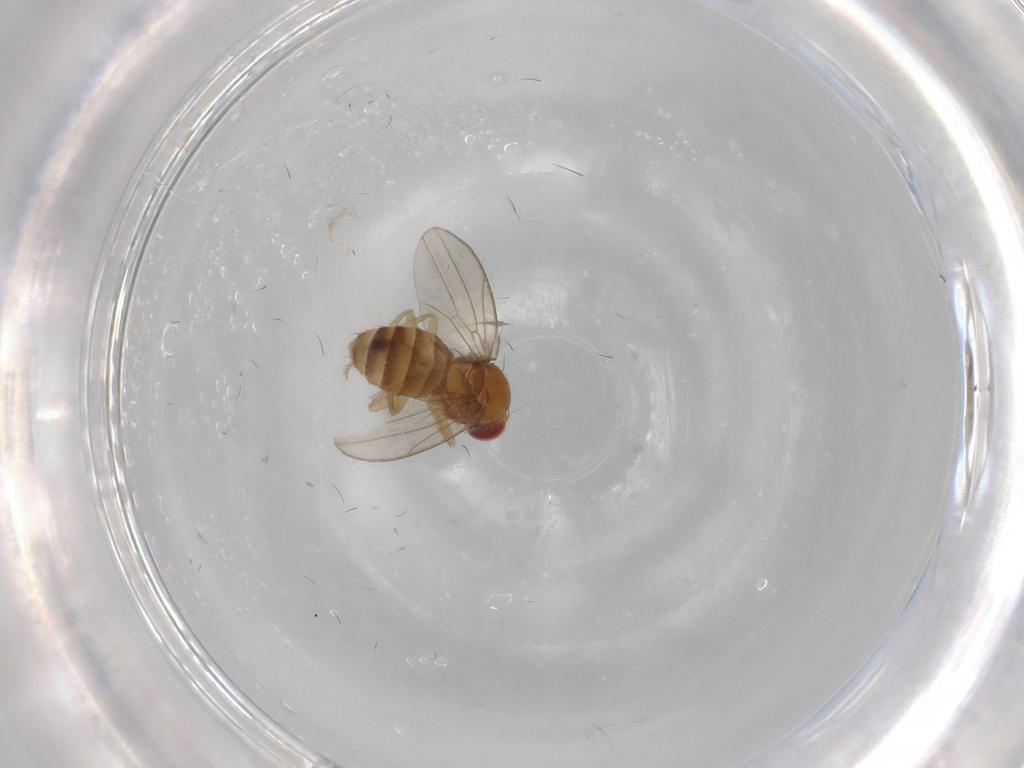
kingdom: Animalia
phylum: Arthropoda
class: Insecta
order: Diptera
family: Drosophilidae
